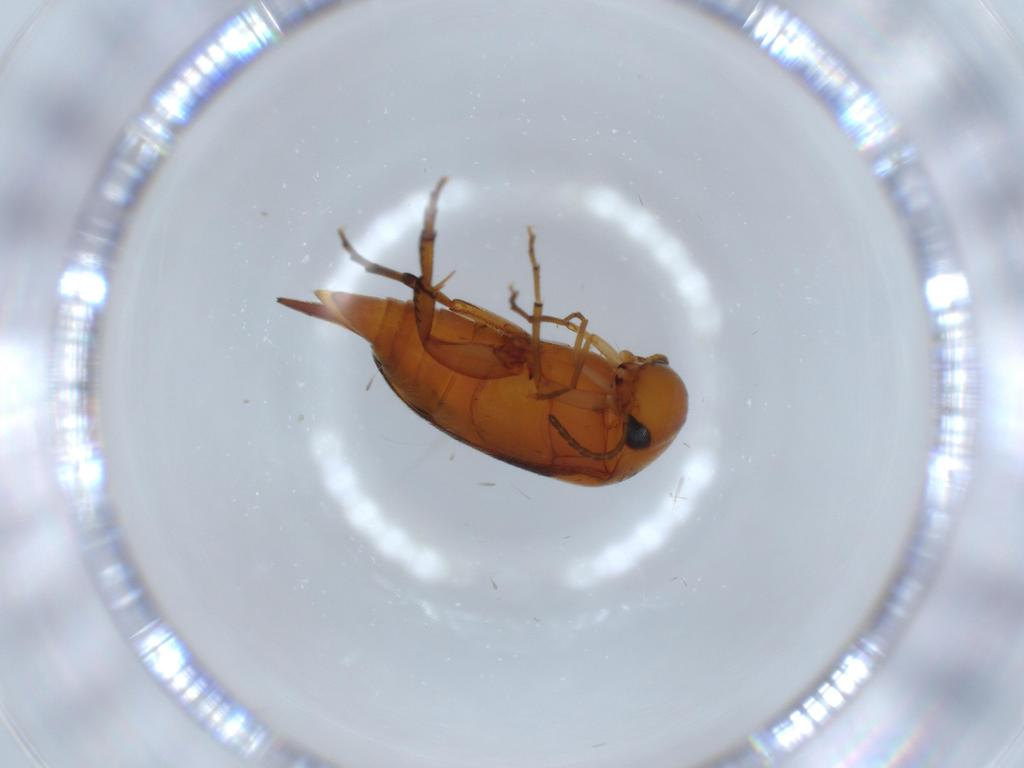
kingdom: Animalia
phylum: Arthropoda
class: Insecta
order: Coleoptera
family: Mordellidae
